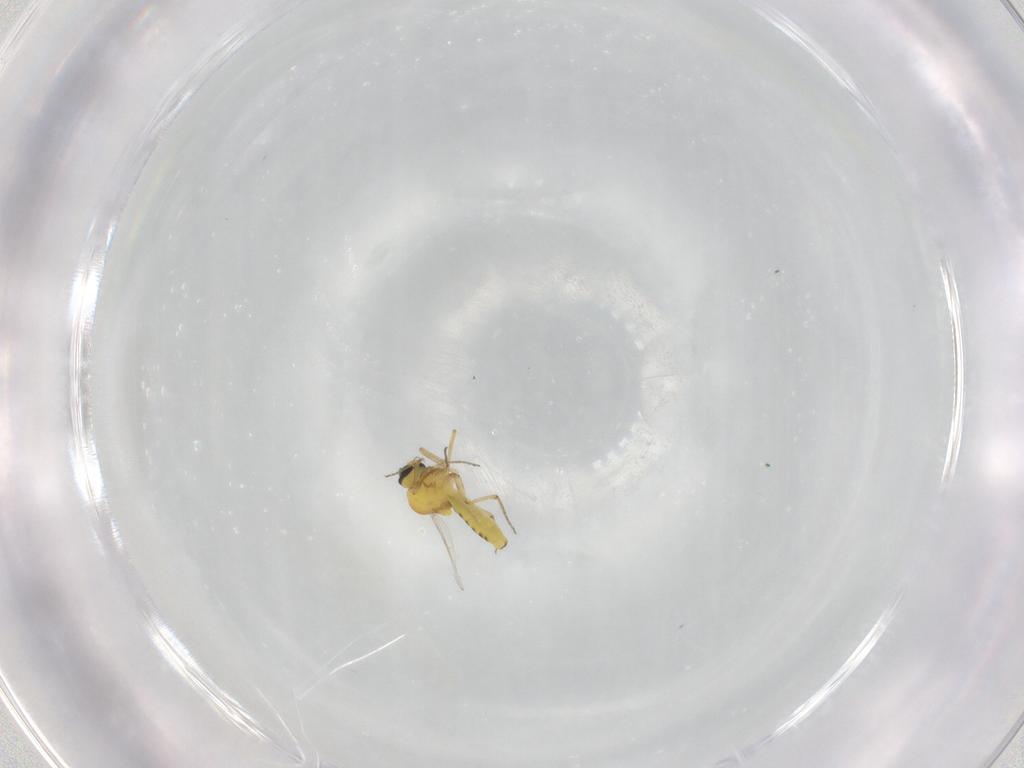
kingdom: Animalia
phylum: Arthropoda
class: Insecta
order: Diptera
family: Ceratopogonidae
